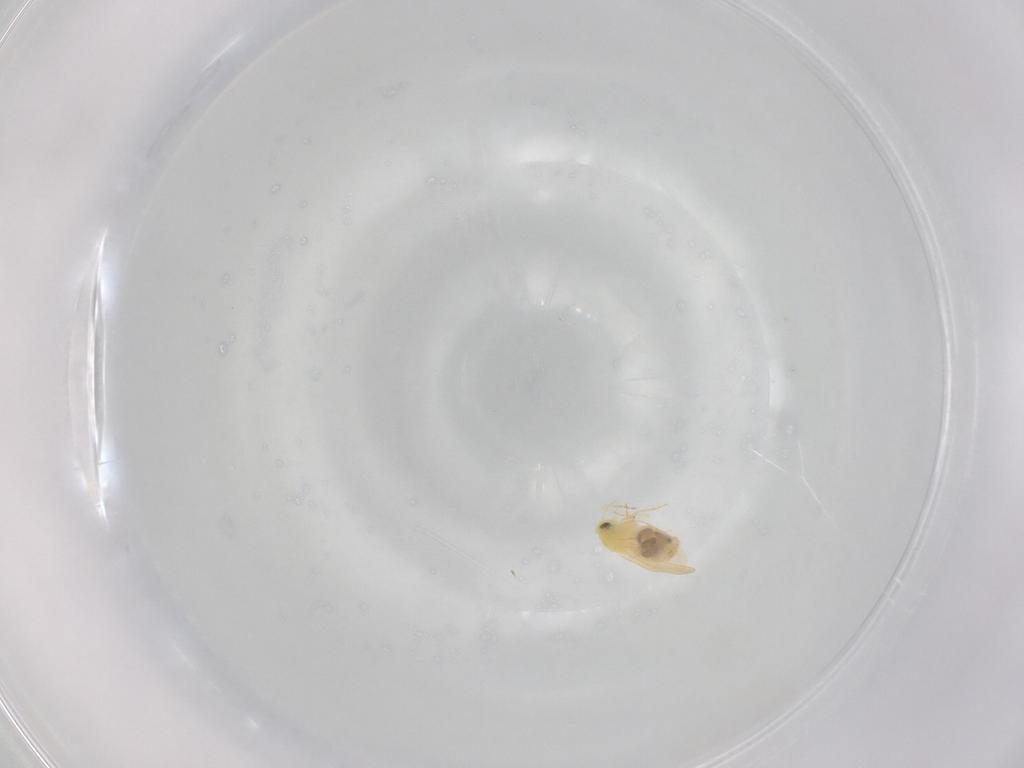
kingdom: Animalia
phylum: Arthropoda
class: Insecta
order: Hemiptera
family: Aleyrodidae
